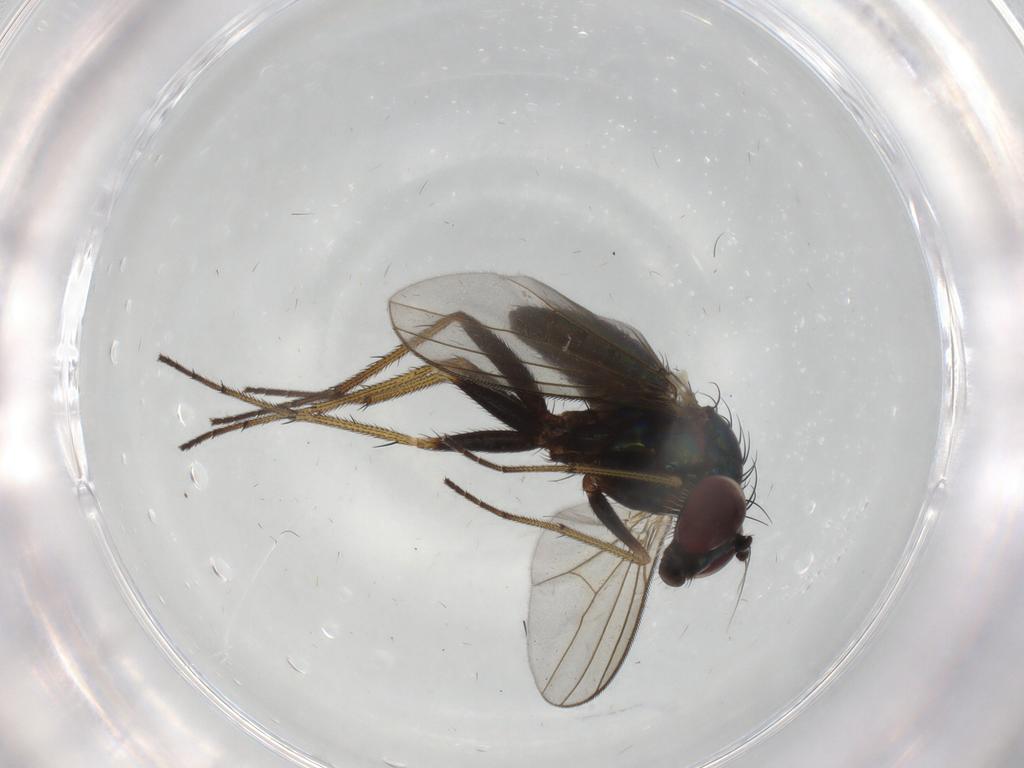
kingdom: Animalia
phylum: Arthropoda
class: Insecta
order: Diptera
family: Dolichopodidae
